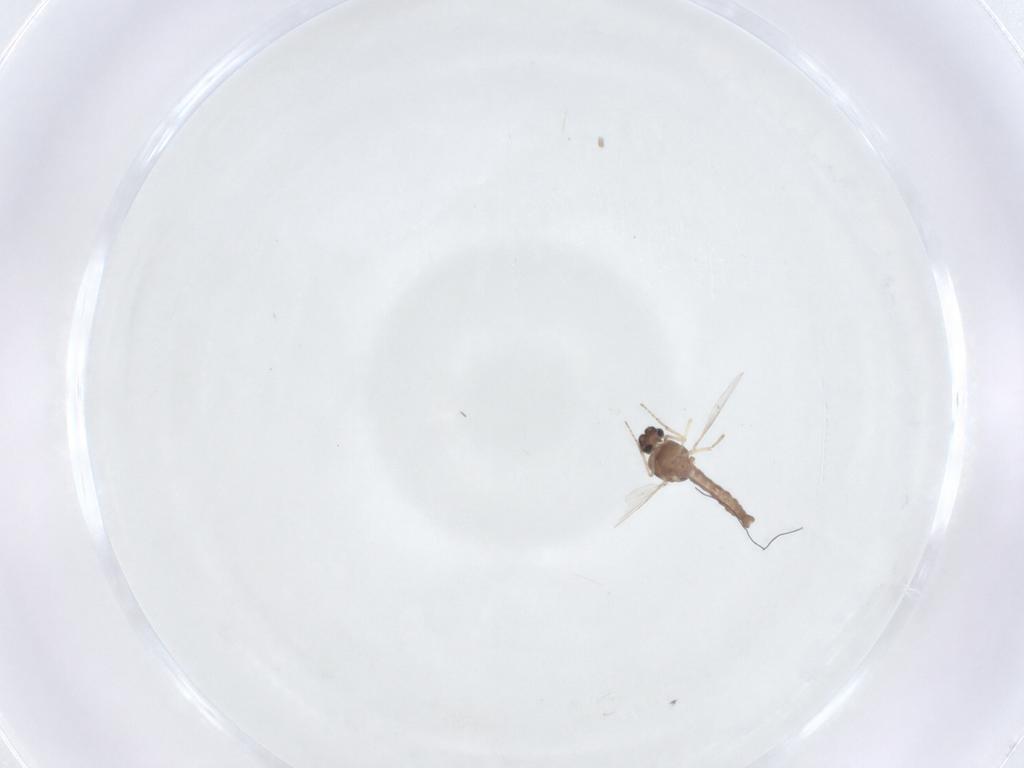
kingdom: Animalia
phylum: Arthropoda
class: Insecta
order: Diptera
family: Ceratopogonidae
